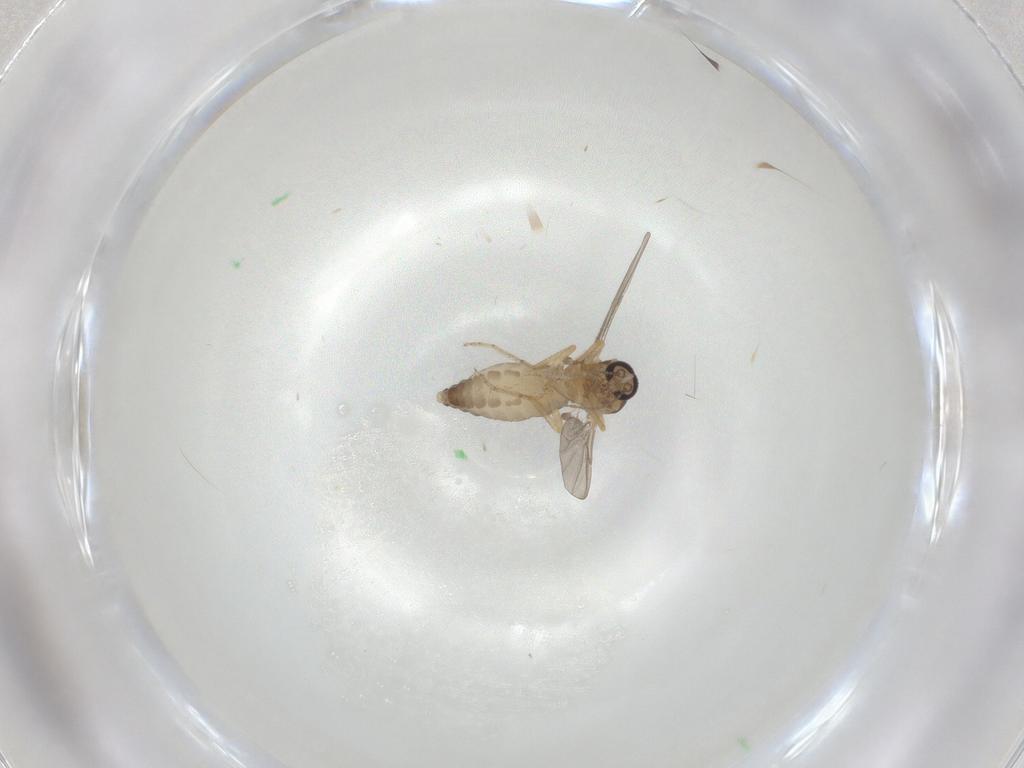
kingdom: Animalia
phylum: Arthropoda
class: Insecta
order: Diptera
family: Ceratopogonidae
